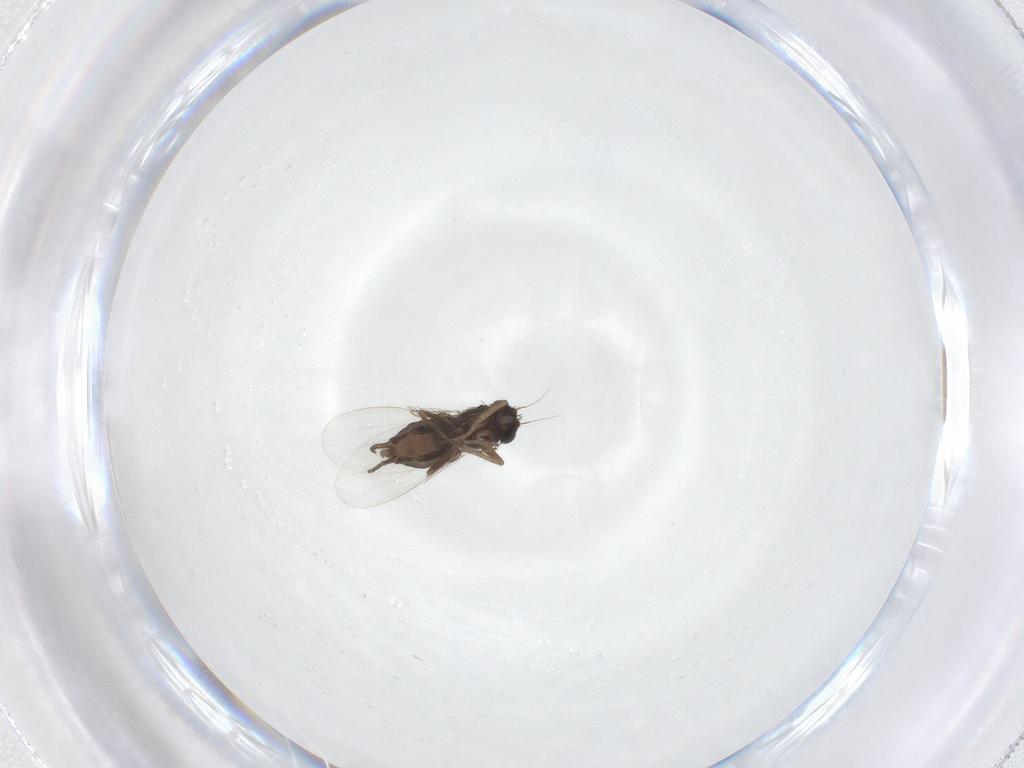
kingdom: Animalia
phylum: Arthropoda
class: Insecta
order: Diptera
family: Phoridae
